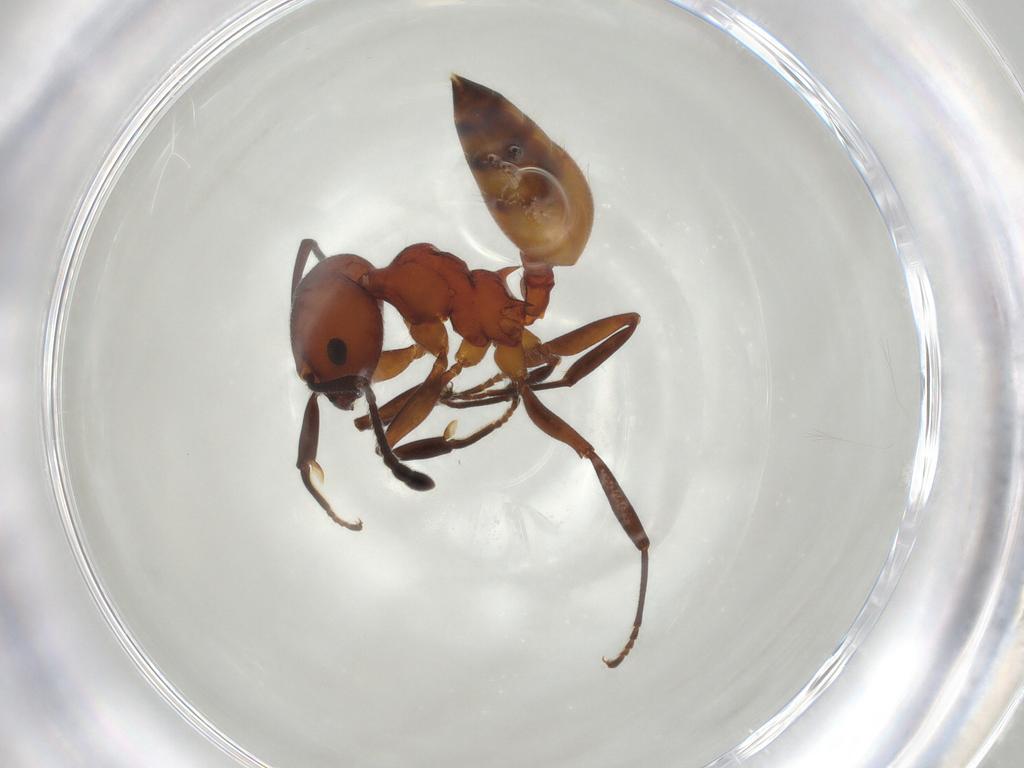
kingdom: Animalia
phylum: Arthropoda
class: Insecta
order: Hymenoptera
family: Formicidae
